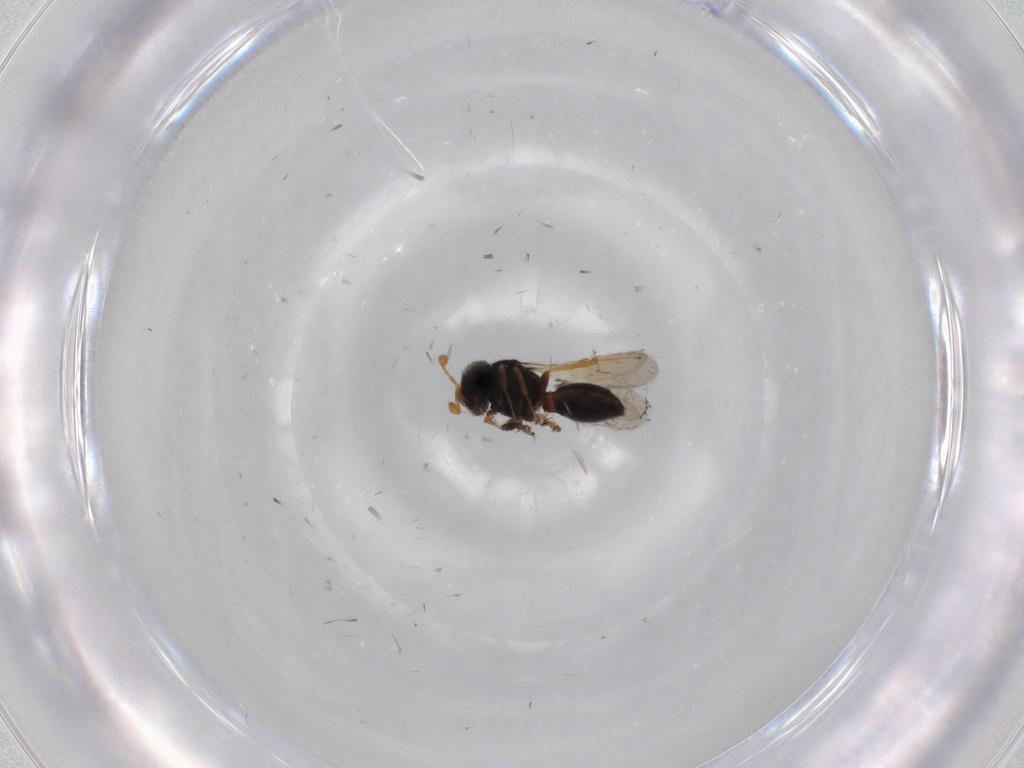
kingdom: Animalia
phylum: Arthropoda
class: Insecta
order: Hymenoptera
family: Scelionidae
